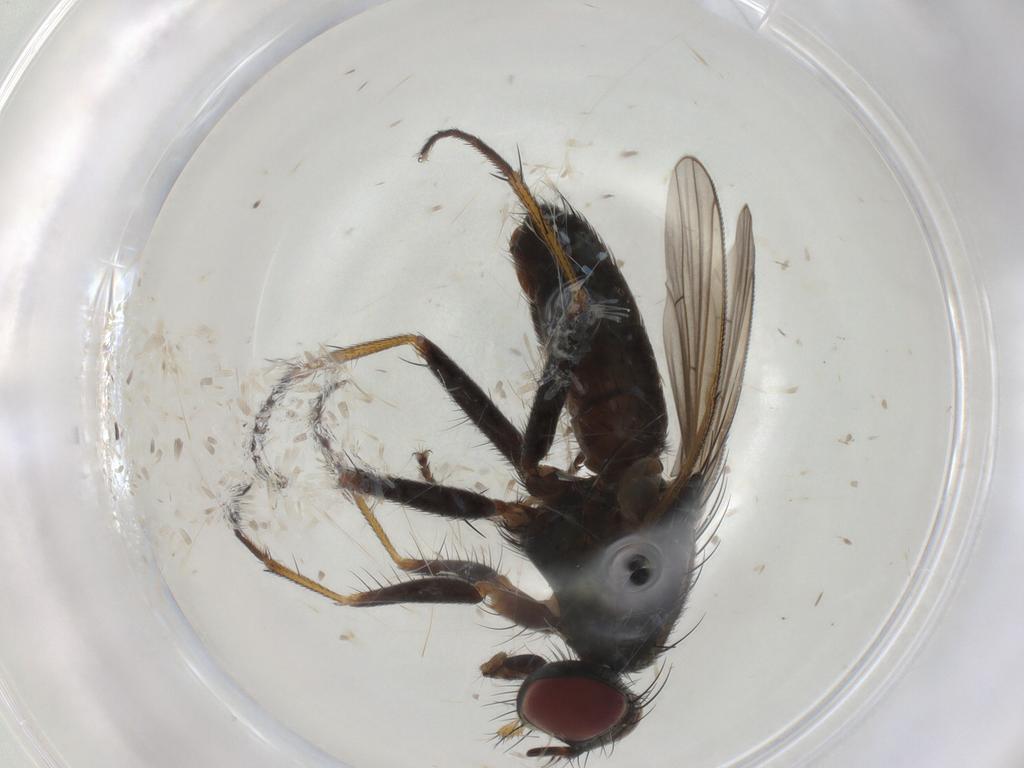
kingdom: Animalia
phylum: Arthropoda
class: Insecta
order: Diptera
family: Muscidae
